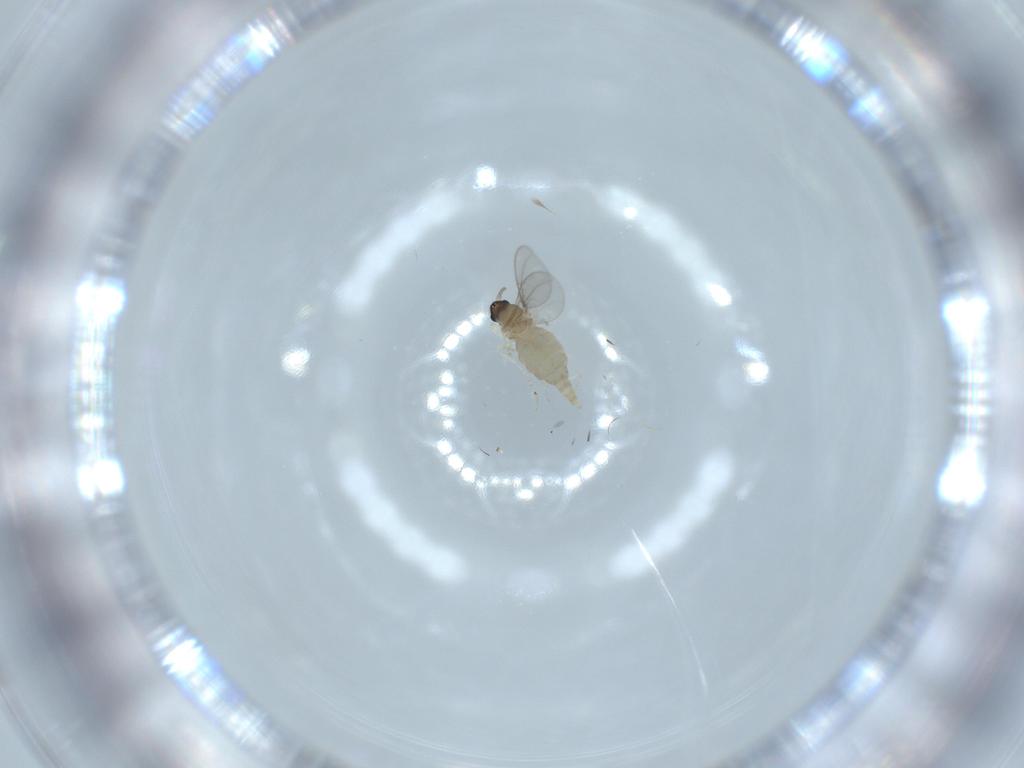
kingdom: Animalia
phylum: Arthropoda
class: Insecta
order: Diptera
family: Cecidomyiidae
